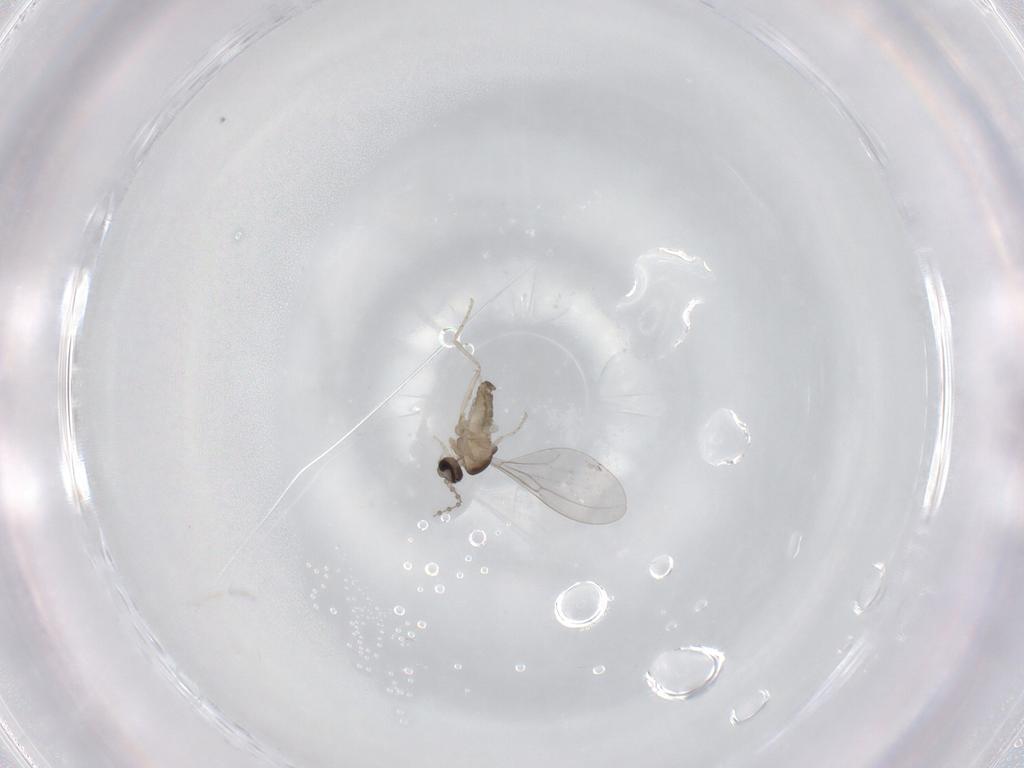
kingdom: Animalia
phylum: Arthropoda
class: Insecta
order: Diptera
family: Cecidomyiidae
